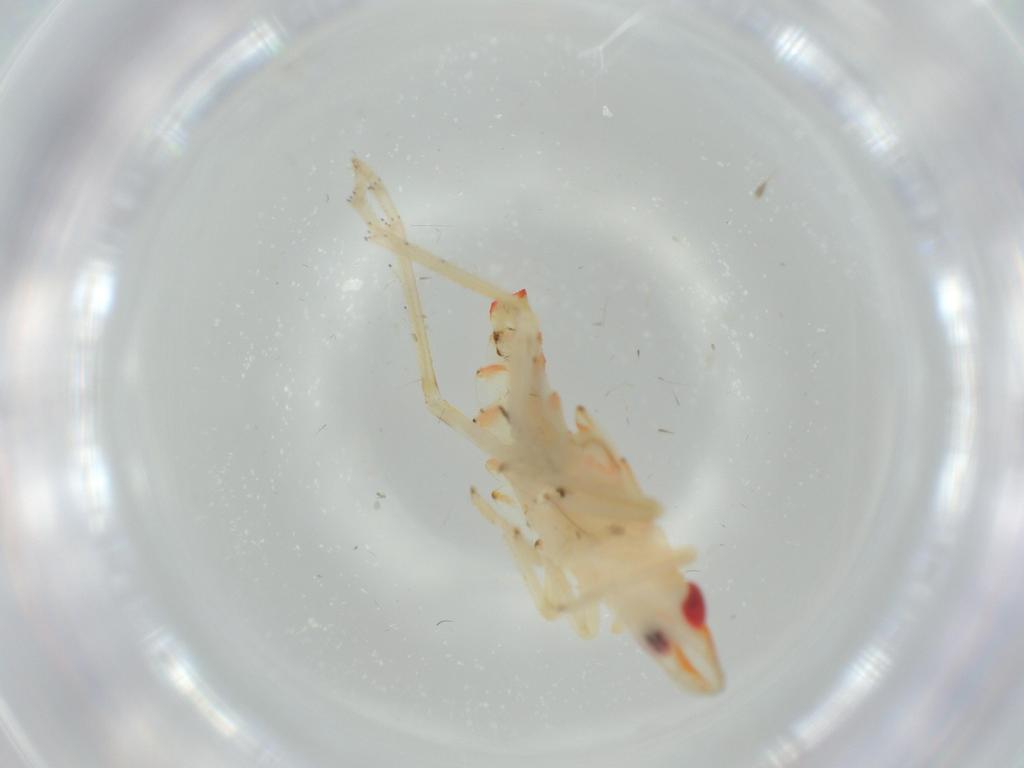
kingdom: Animalia
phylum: Arthropoda
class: Insecta
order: Hemiptera
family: Tropiduchidae
